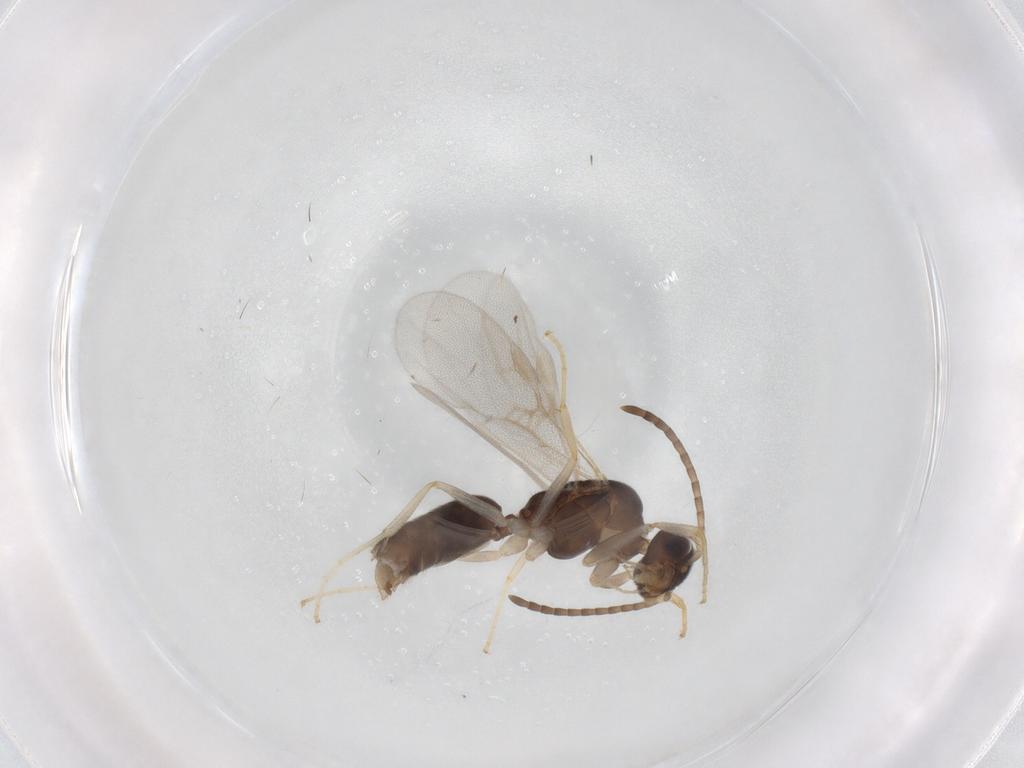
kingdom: Animalia
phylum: Arthropoda
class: Insecta
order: Hymenoptera
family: Formicidae
